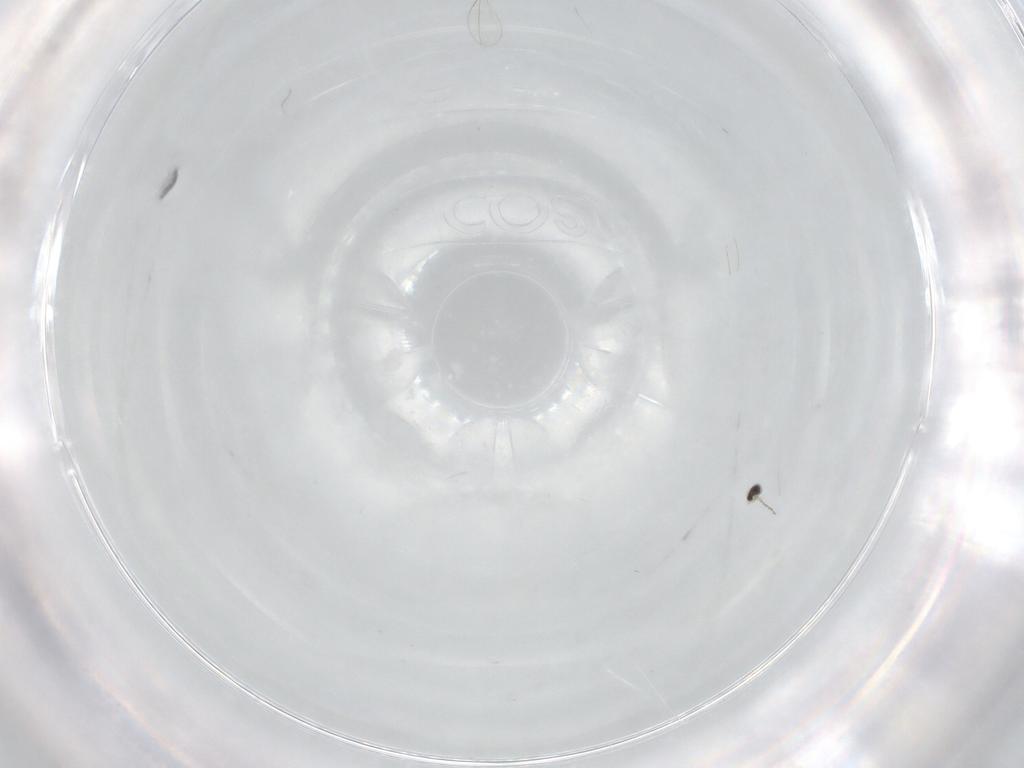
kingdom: Animalia
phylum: Arthropoda
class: Insecta
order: Diptera
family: Cecidomyiidae
